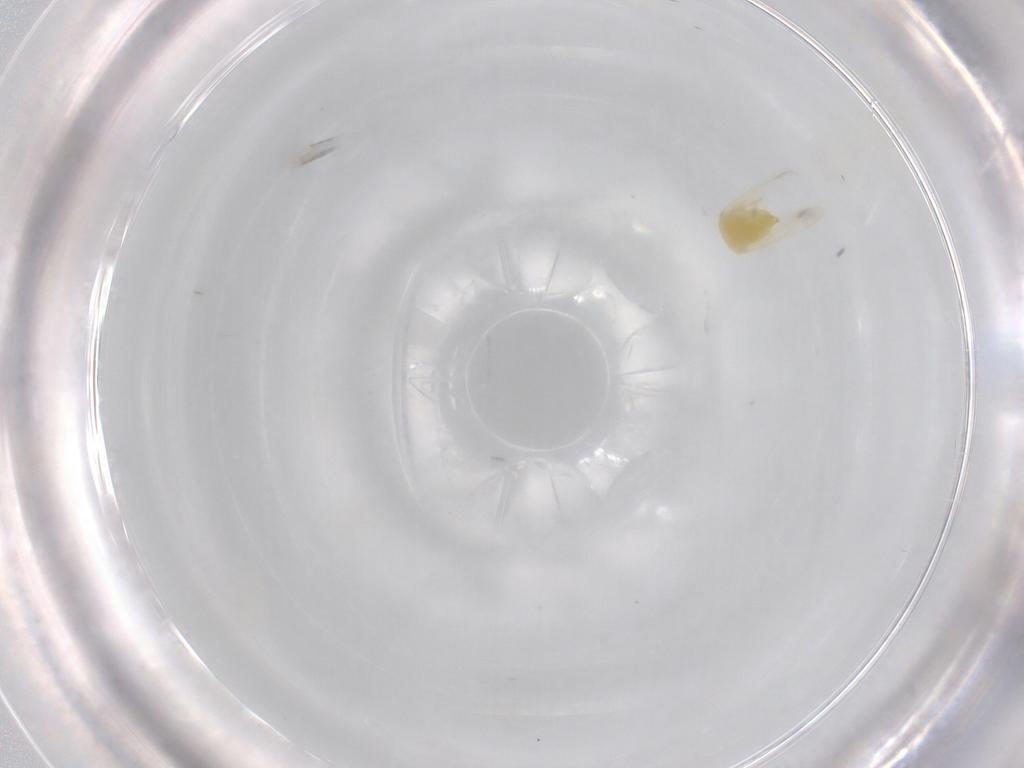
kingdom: Animalia
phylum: Arthropoda
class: Insecta
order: Hemiptera
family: Aleyrodidae
